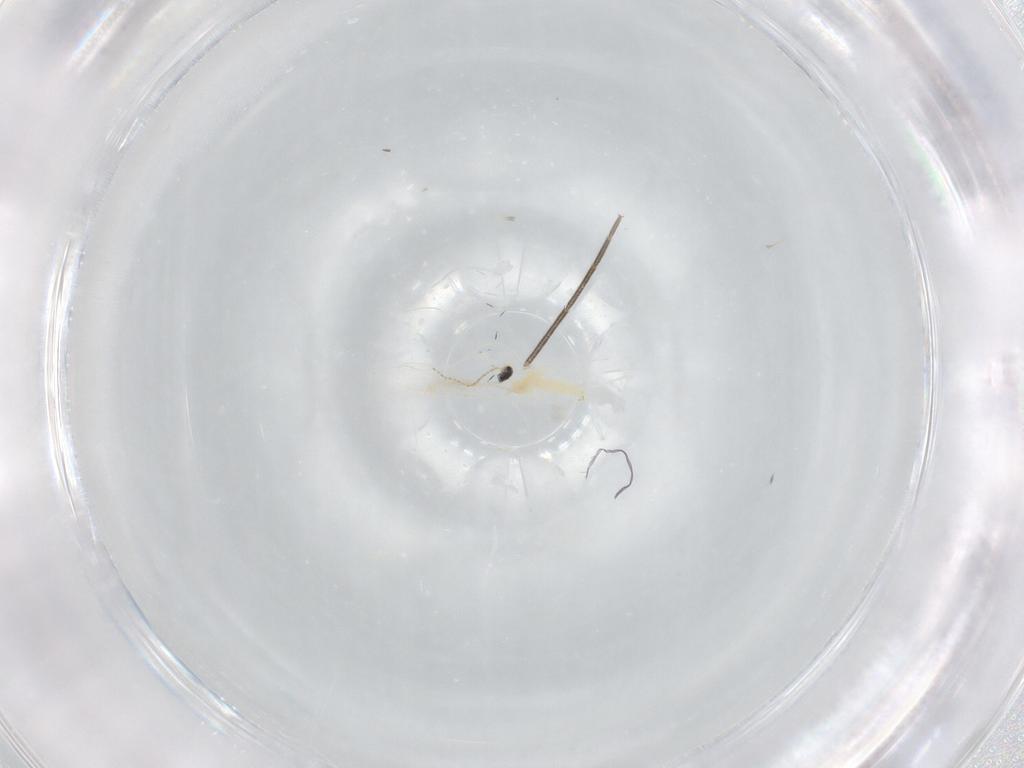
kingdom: Animalia
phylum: Arthropoda
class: Insecta
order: Diptera
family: Cecidomyiidae
